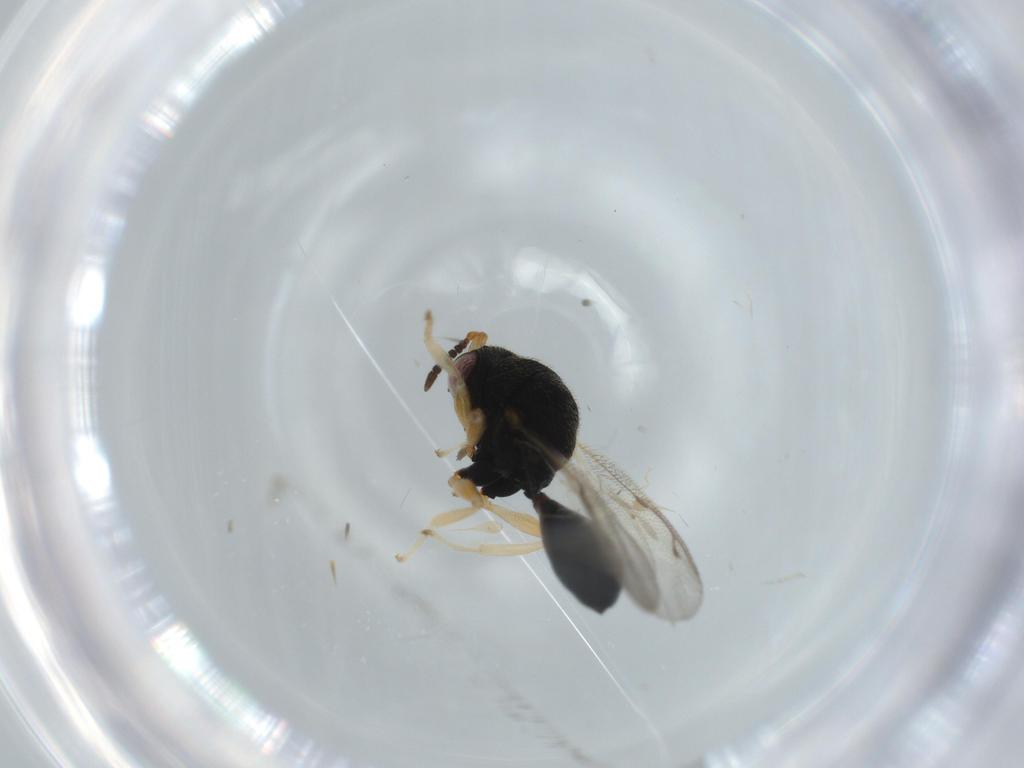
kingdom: Animalia
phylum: Arthropoda
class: Insecta
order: Hymenoptera
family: Eurytomidae
